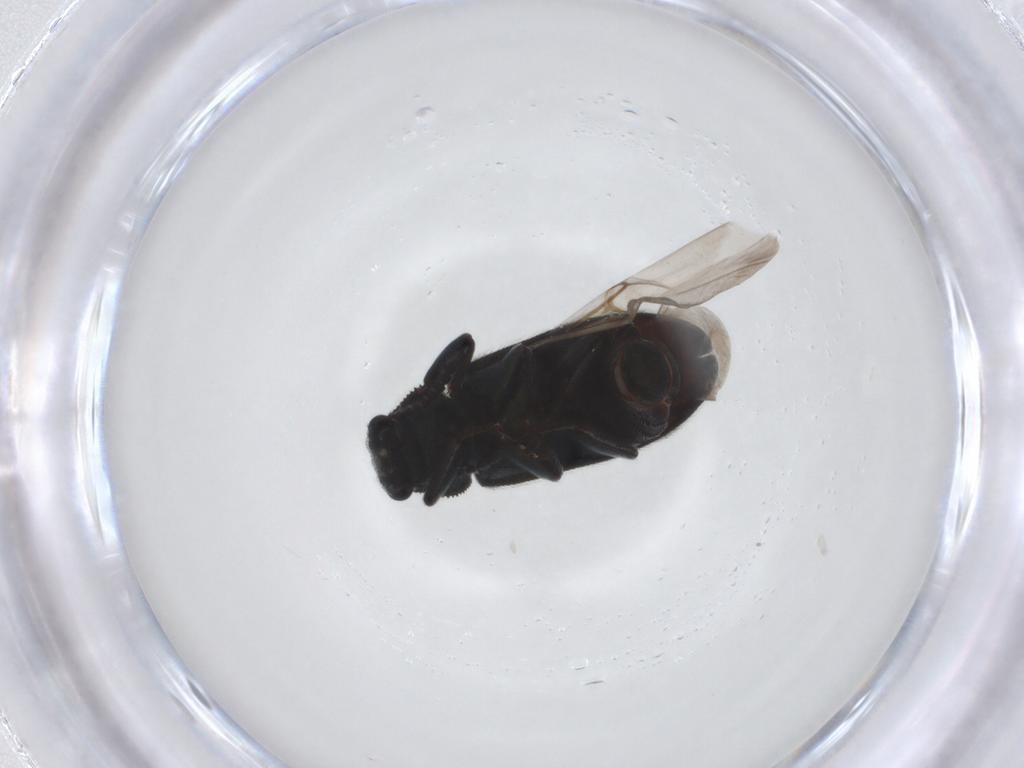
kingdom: Animalia
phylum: Arthropoda
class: Insecta
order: Coleoptera
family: Melyridae
